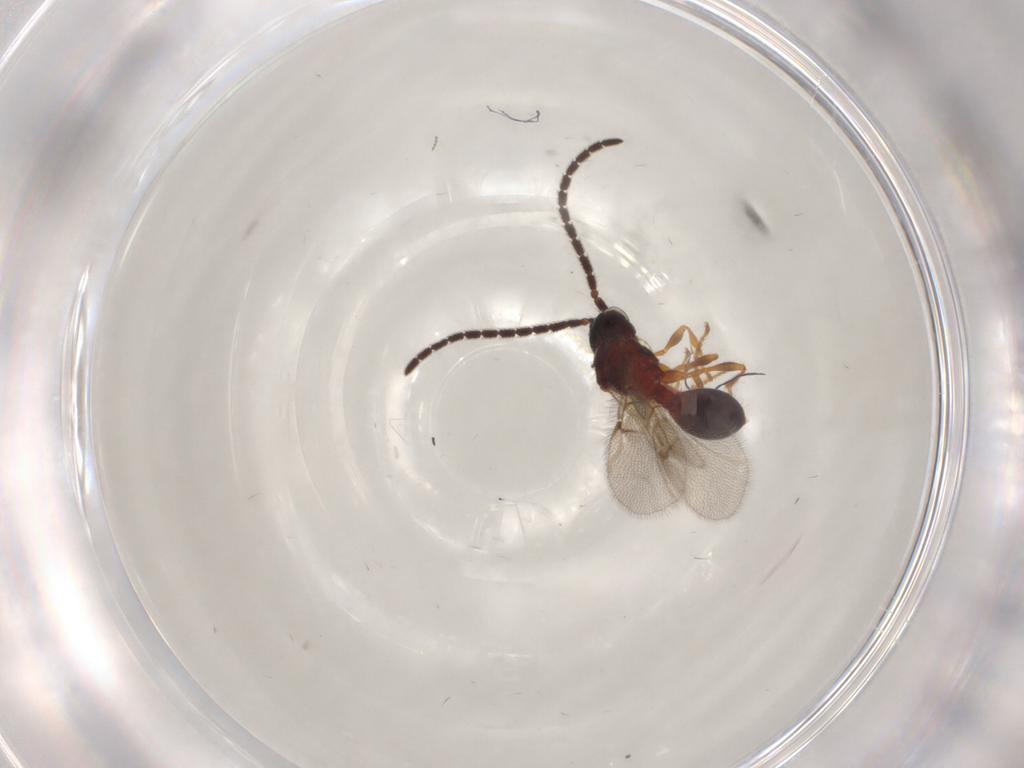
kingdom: Animalia
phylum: Arthropoda
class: Insecta
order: Hymenoptera
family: Diapriidae
